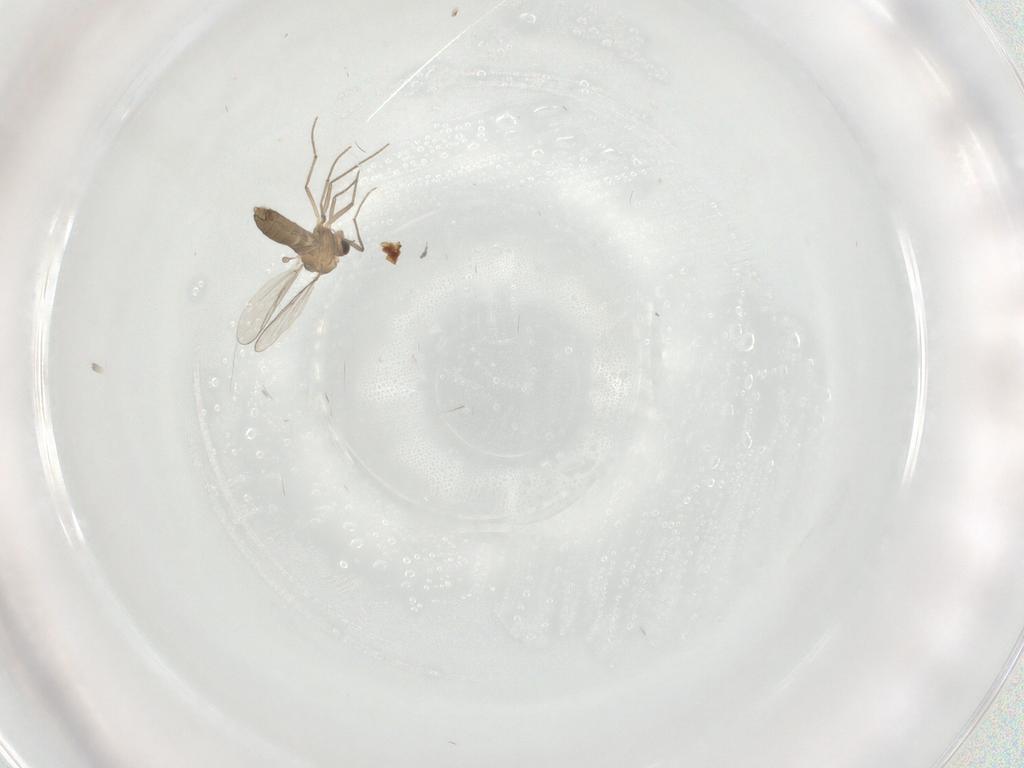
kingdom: Animalia
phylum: Arthropoda
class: Insecta
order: Diptera
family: Chironomidae
